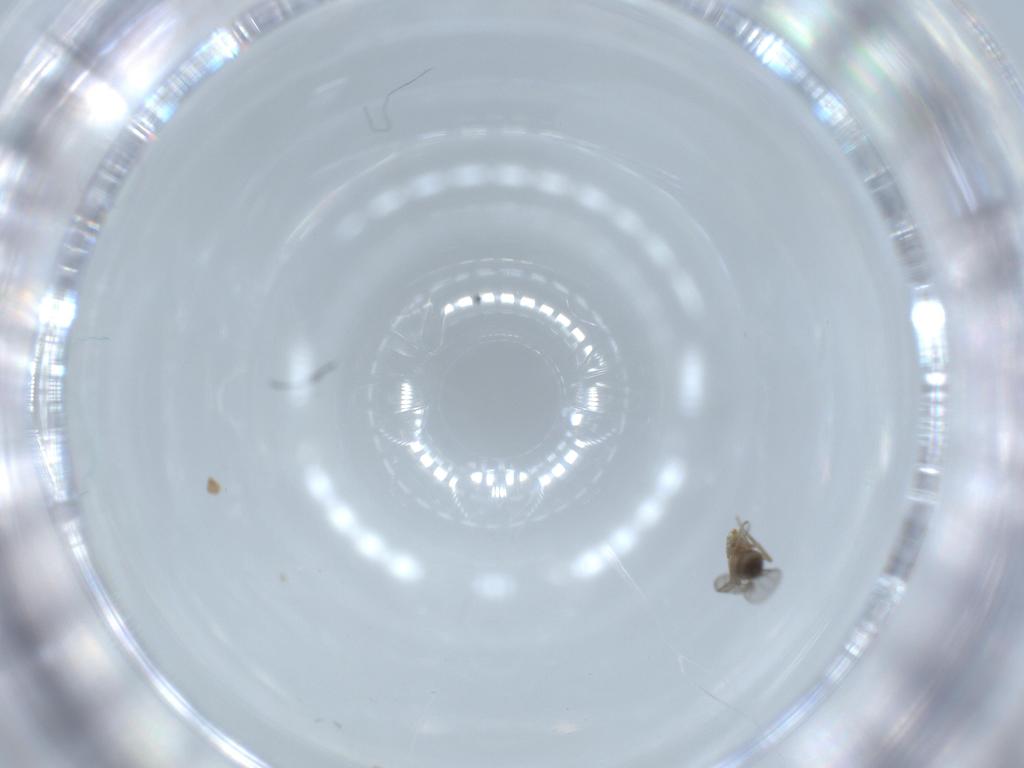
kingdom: Animalia
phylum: Arthropoda
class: Insecta
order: Diptera
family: Phoridae
